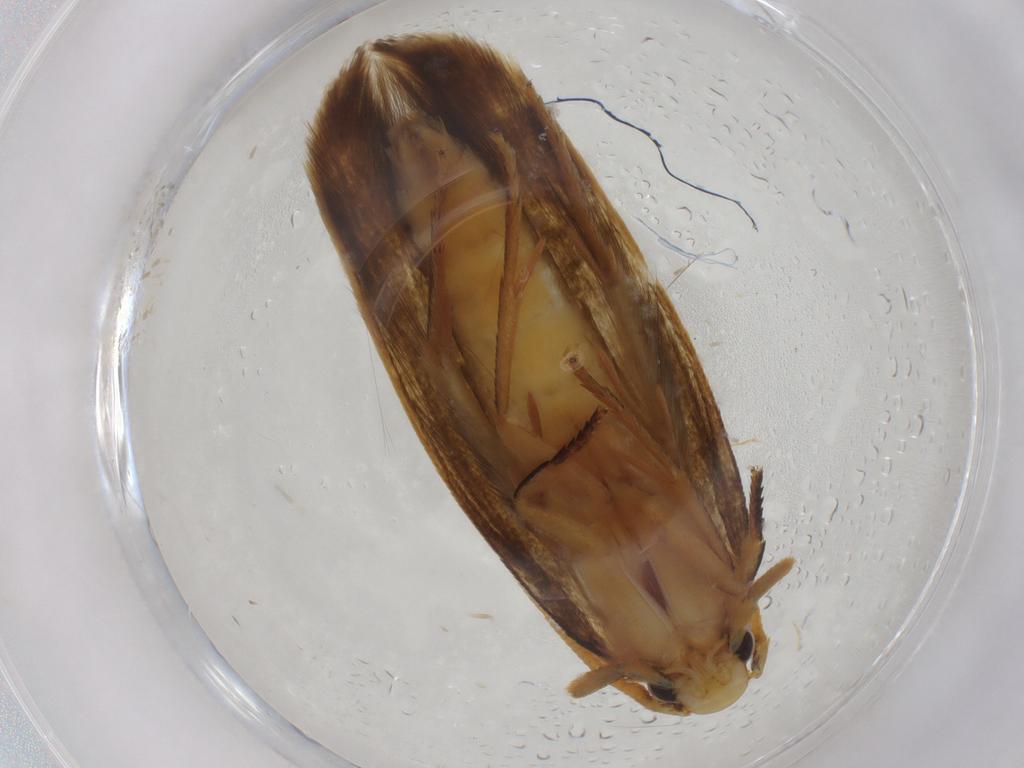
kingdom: Animalia
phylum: Arthropoda
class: Insecta
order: Lepidoptera
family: Tineidae
